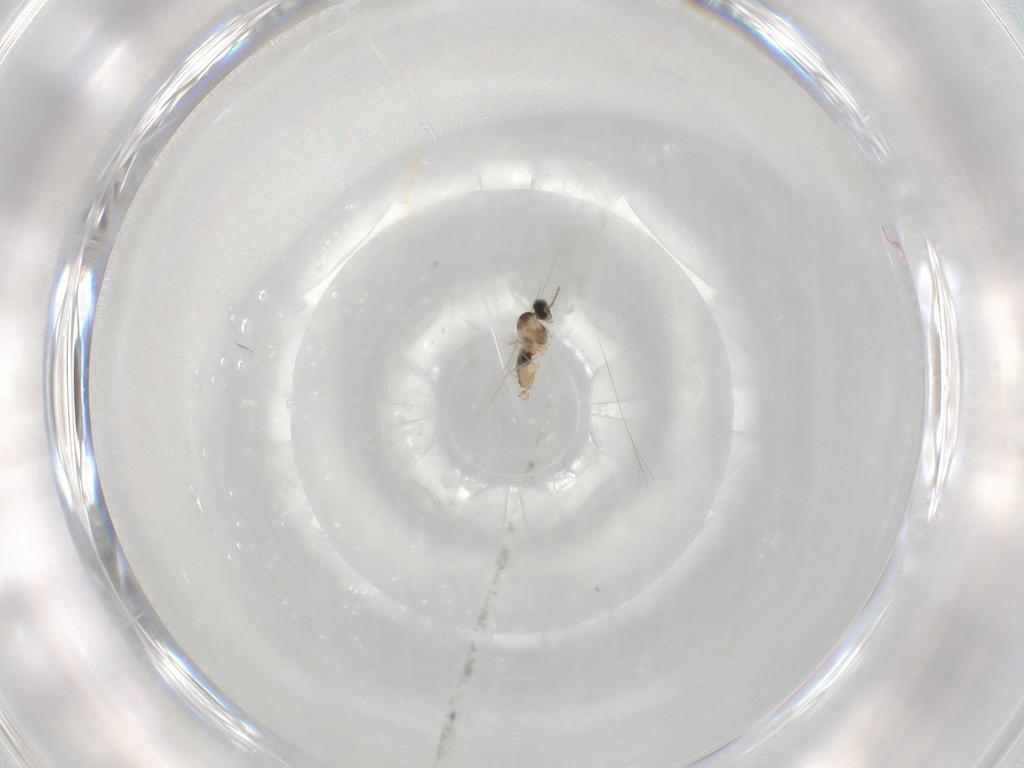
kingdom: Animalia
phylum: Arthropoda
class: Insecta
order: Diptera
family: Cecidomyiidae
